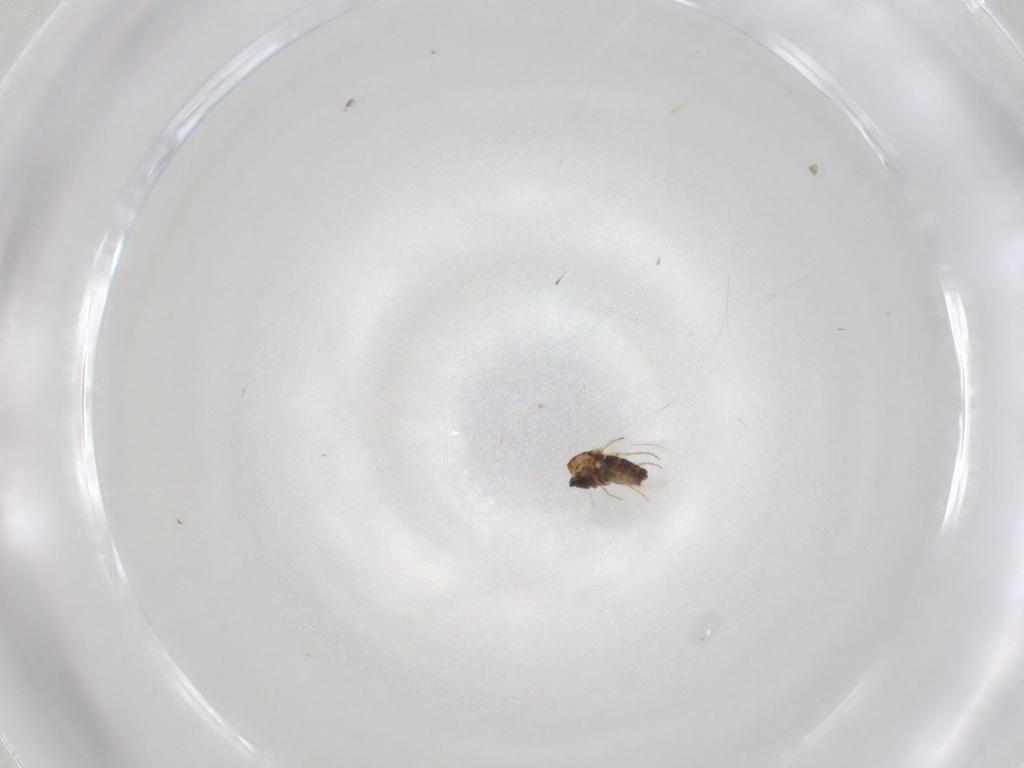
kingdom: Animalia
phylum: Arthropoda
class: Insecta
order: Diptera
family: Ceratopogonidae
